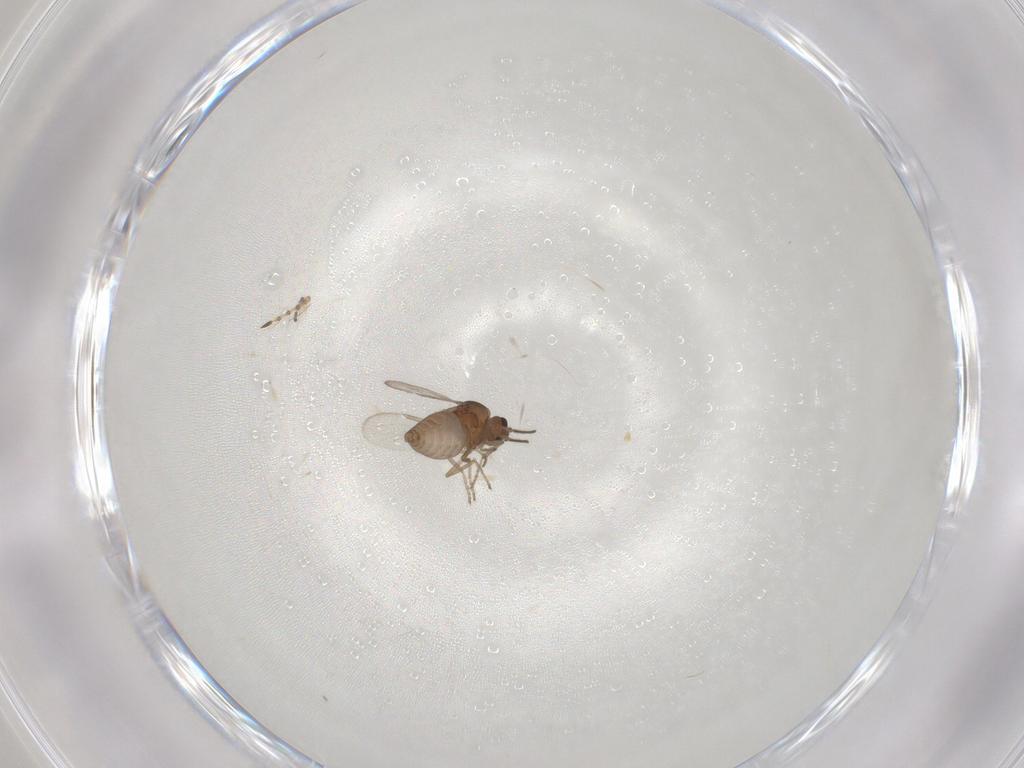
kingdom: Animalia
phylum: Arthropoda
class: Insecta
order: Diptera
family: Ceratopogonidae
